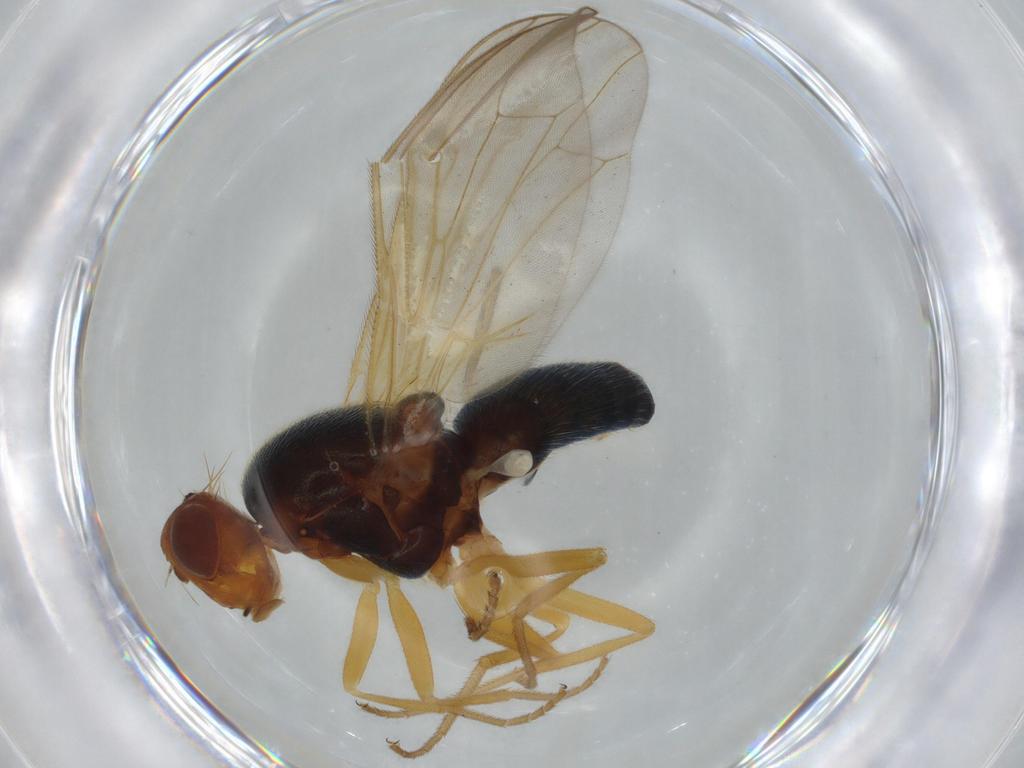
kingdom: Animalia
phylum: Arthropoda
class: Insecta
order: Diptera
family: Muscidae
